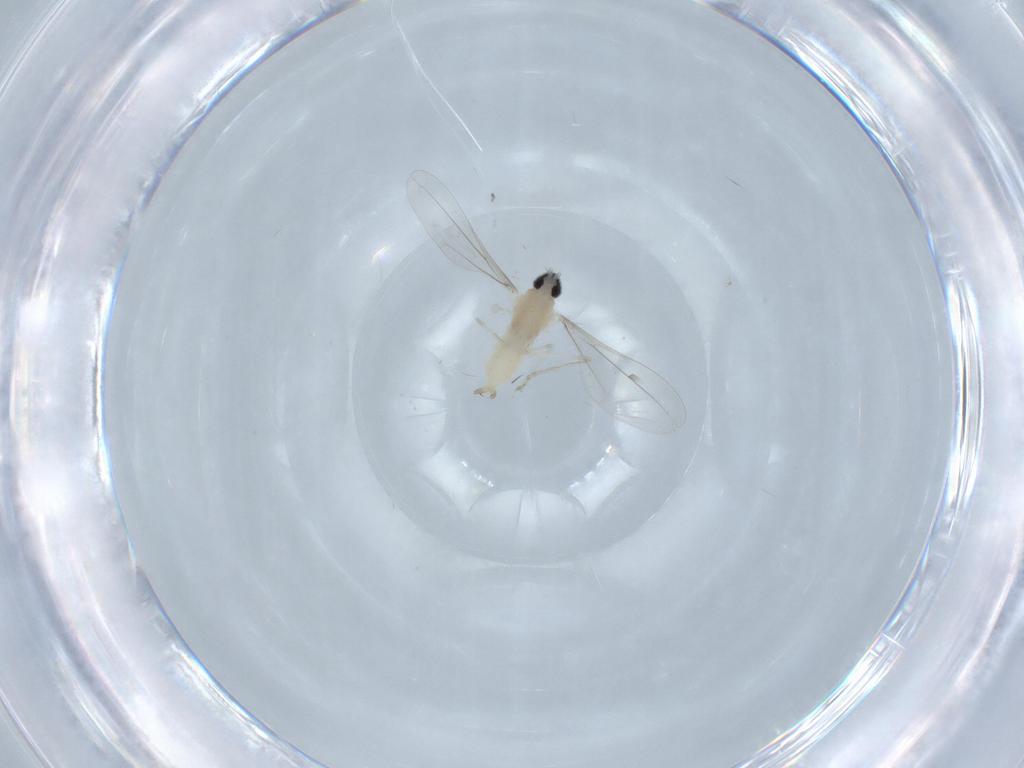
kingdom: Animalia
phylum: Arthropoda
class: Insecta
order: Diptera
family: Cecidomyiidae
